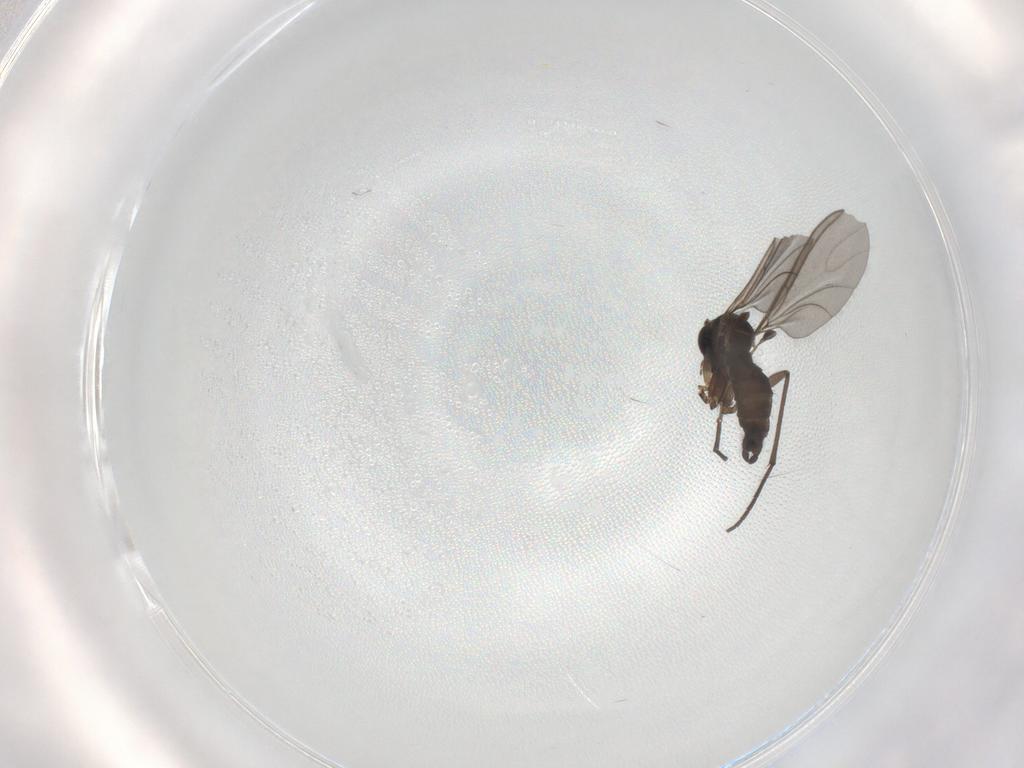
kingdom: Animalia
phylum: Arthropoda
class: Insecta
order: Diptera
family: Sciaridae
